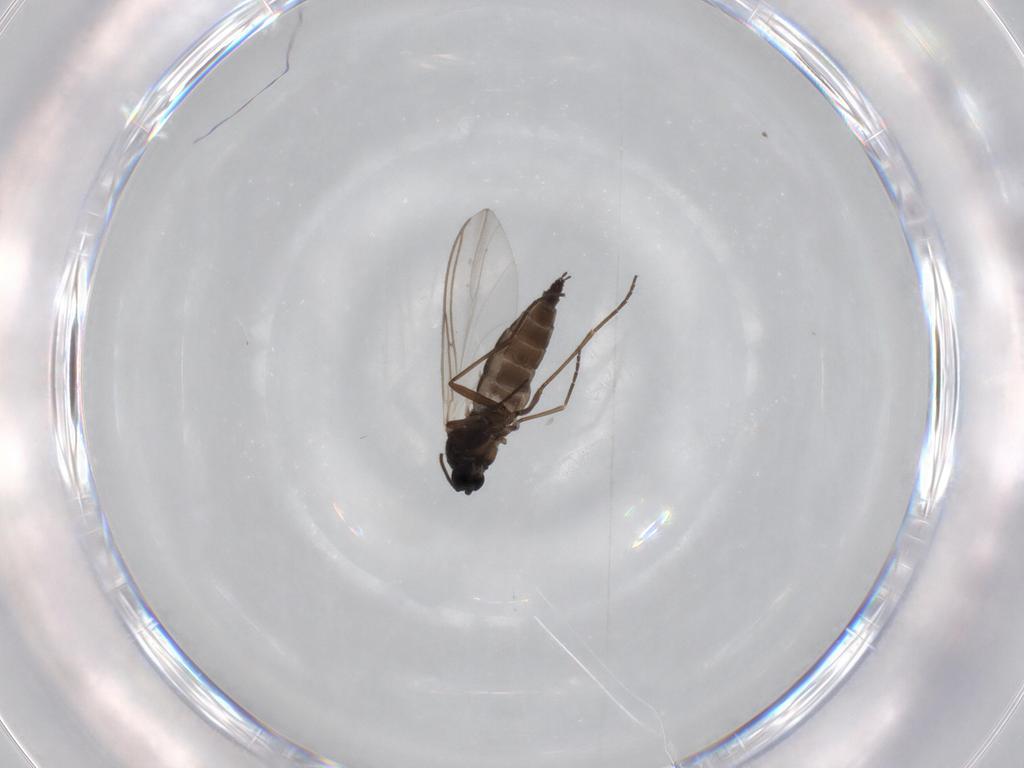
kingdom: Animalia
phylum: Arthropoda
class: Insecta
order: Diptera
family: Sciaridae
